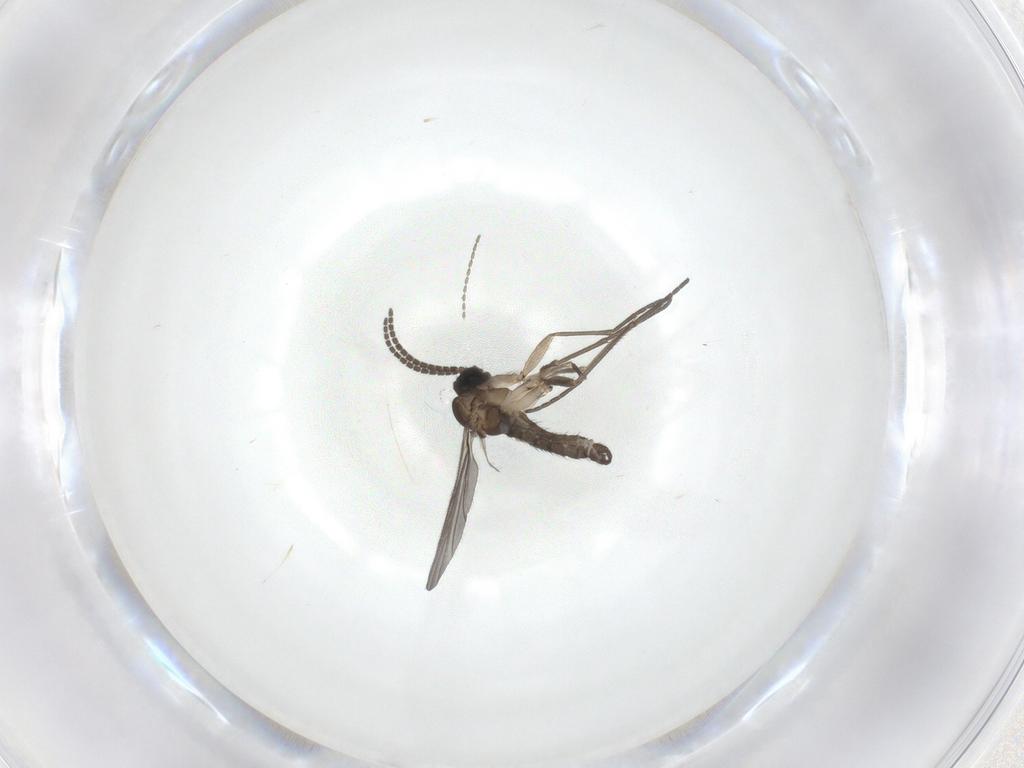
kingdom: Animalia
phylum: Arthropoda
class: Insecta
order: Diptera
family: Sciaridae
